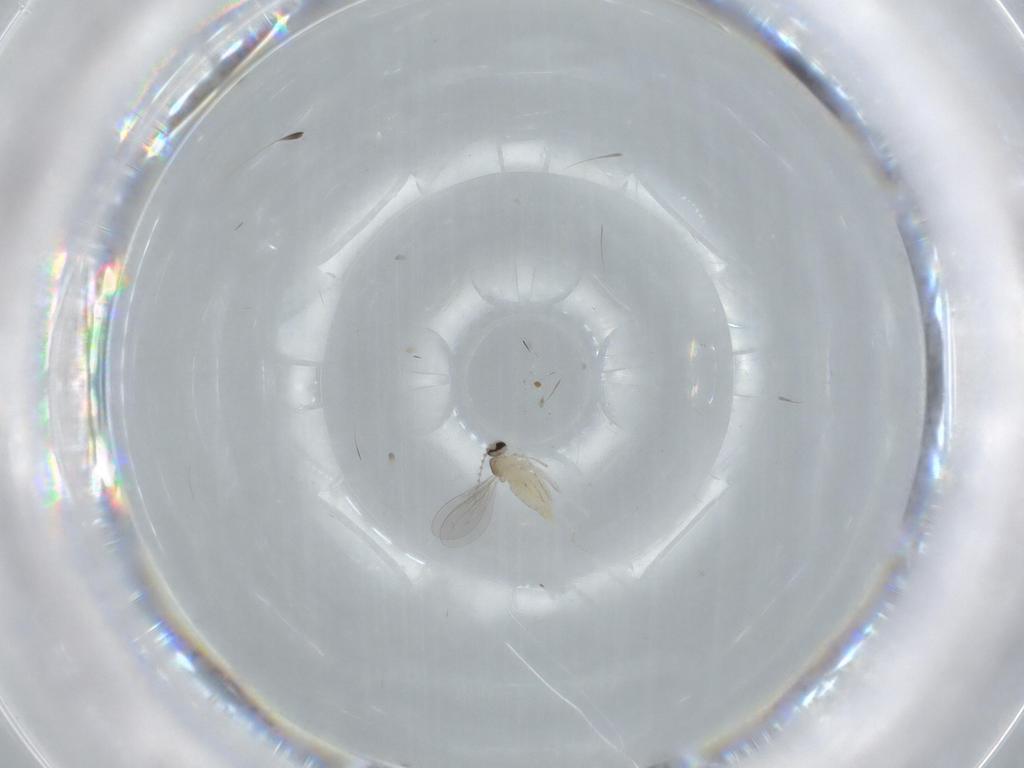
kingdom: Animalia
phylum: Arthropoda
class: Insecta
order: Diptera
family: Cecidomyiidae
